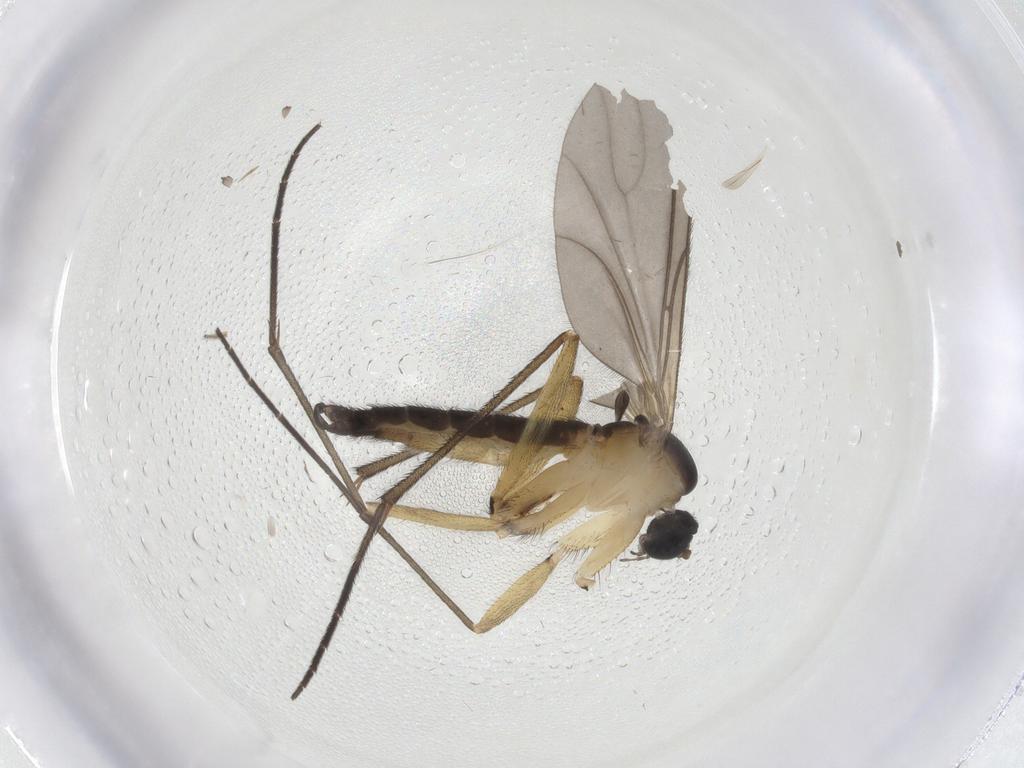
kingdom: Animalia
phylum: Arthropoda
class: Insecta
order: Diptera
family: Sciaridae
